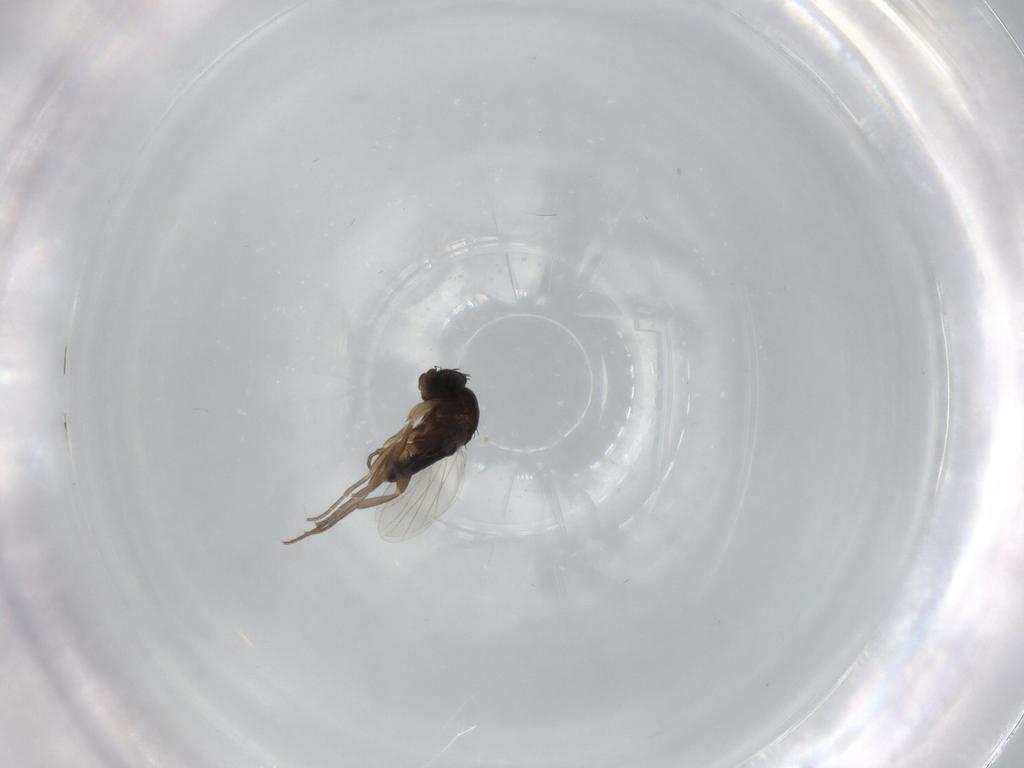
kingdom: Animalia
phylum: Arthropoda
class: Insecta
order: Diptera
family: Phoridae
